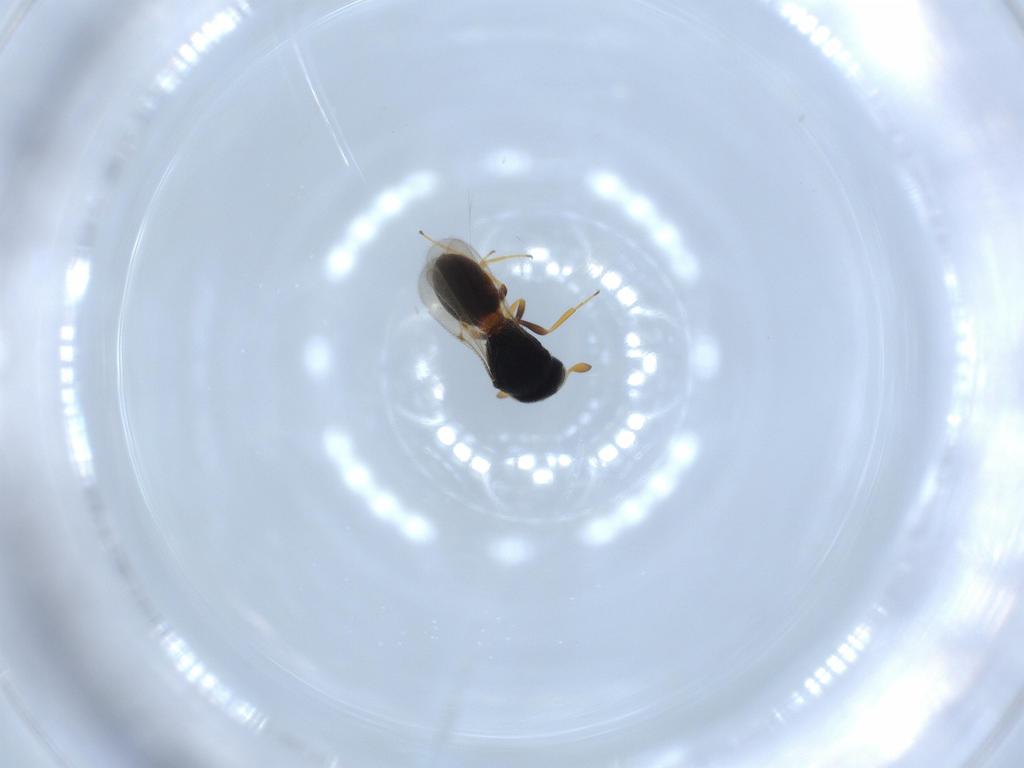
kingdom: Animalia
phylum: Arthropoda
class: Insecta
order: Hymenoptera
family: Scelionidae
